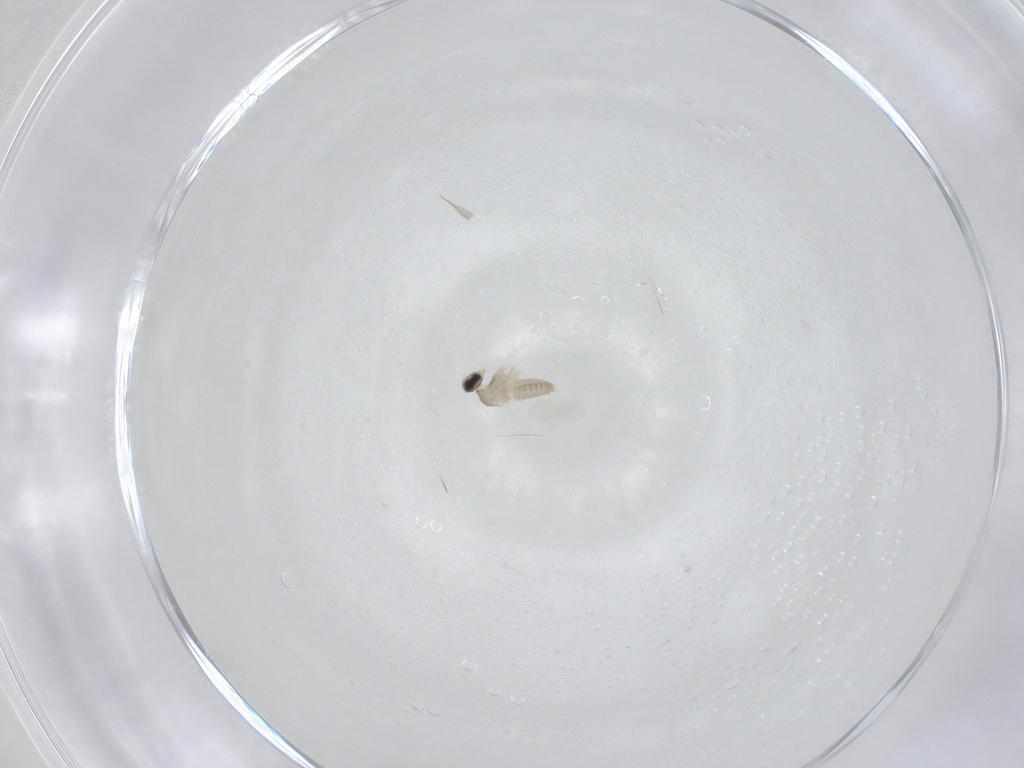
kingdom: Animalia
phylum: Arthropoda
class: Insecta
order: Diptera
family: Cecidomyiidae
